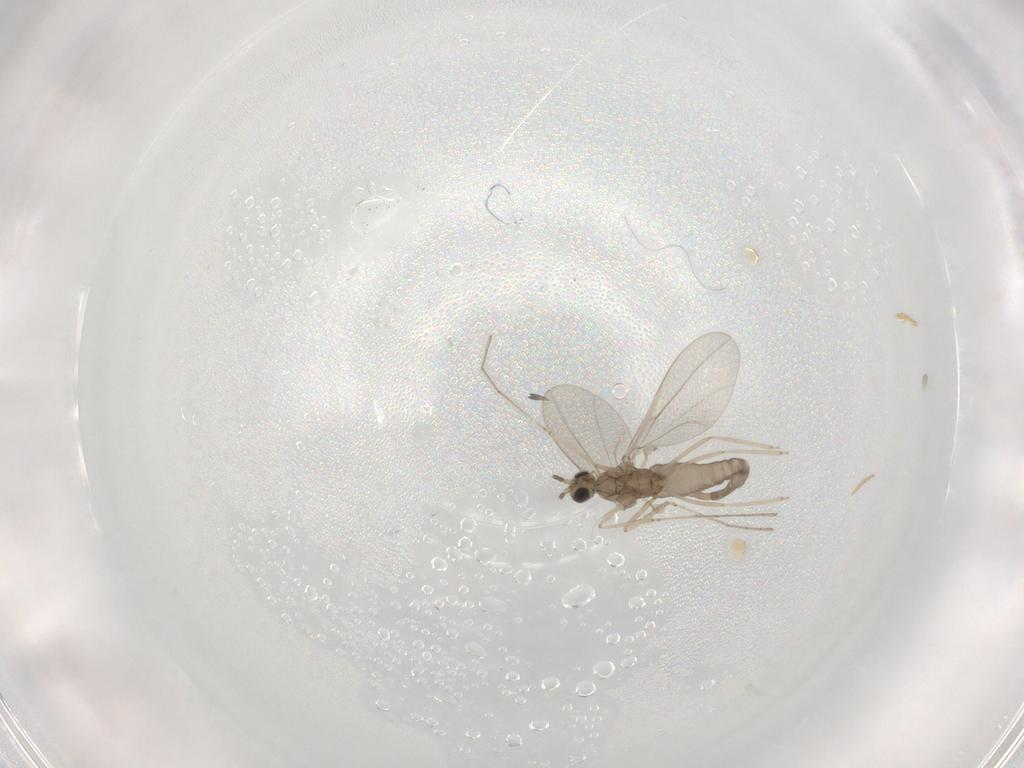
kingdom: Animalia
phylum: Arthropoda
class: Insecta
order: Diptera
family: Cecidomyiidae
